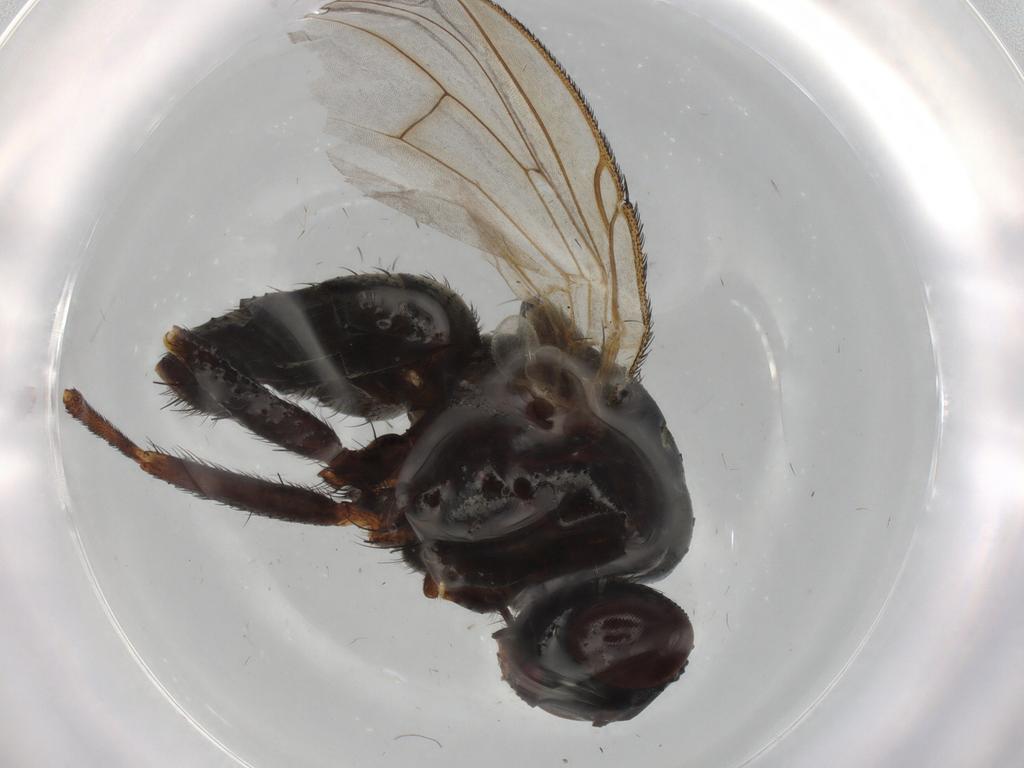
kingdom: Animalia
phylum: Arthropoda
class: Insecta
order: Diptera
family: Muscidae
